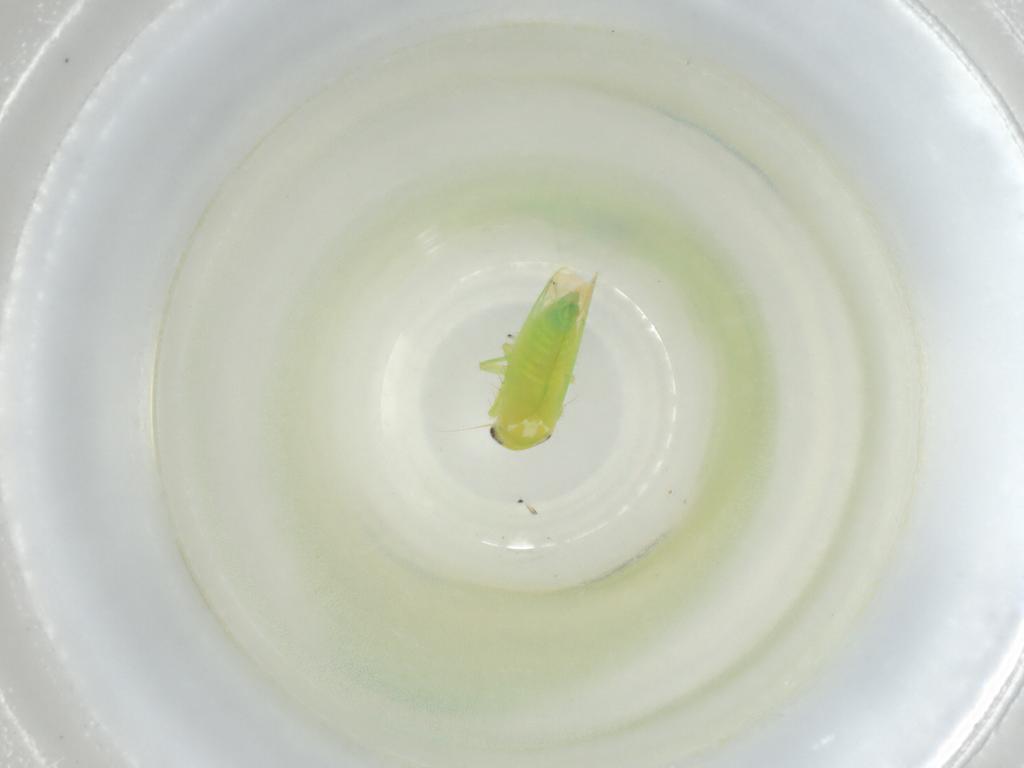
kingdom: Animalia
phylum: Arthropoda
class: Insecta
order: Hemiptera
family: Cicadellidae
